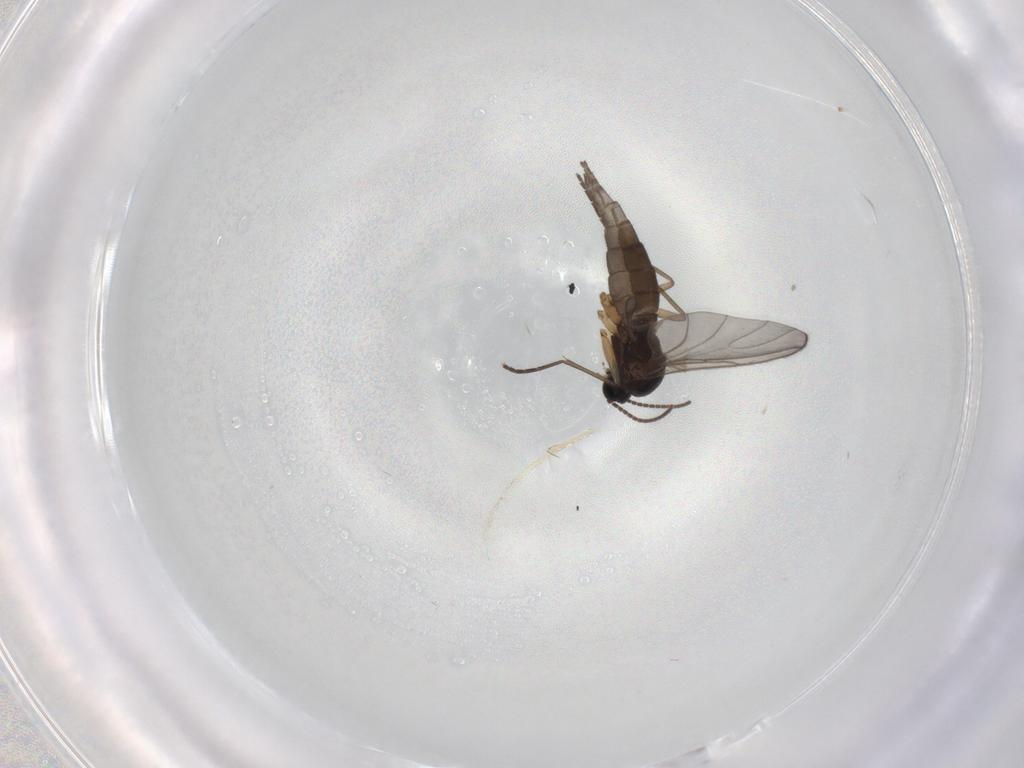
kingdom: Animalia
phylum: Arthropoda
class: Insecta
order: Diptera
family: Sciaridae
